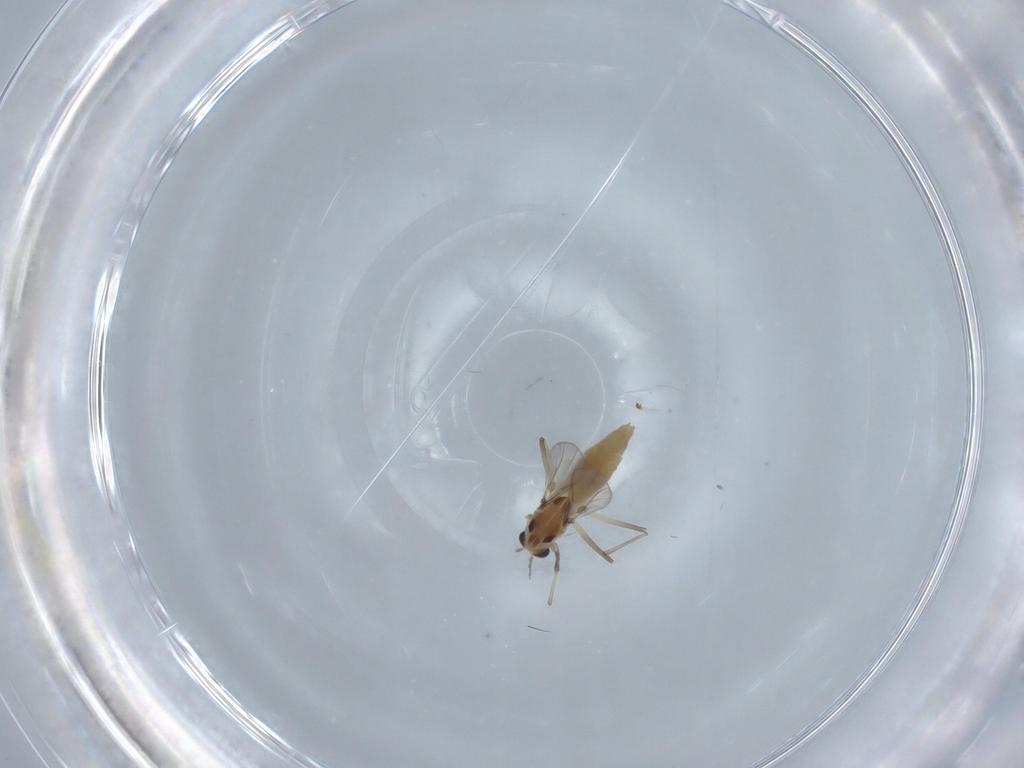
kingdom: Animalia
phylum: Arthropoda
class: Insecta
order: Diptera
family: Chironomidae
